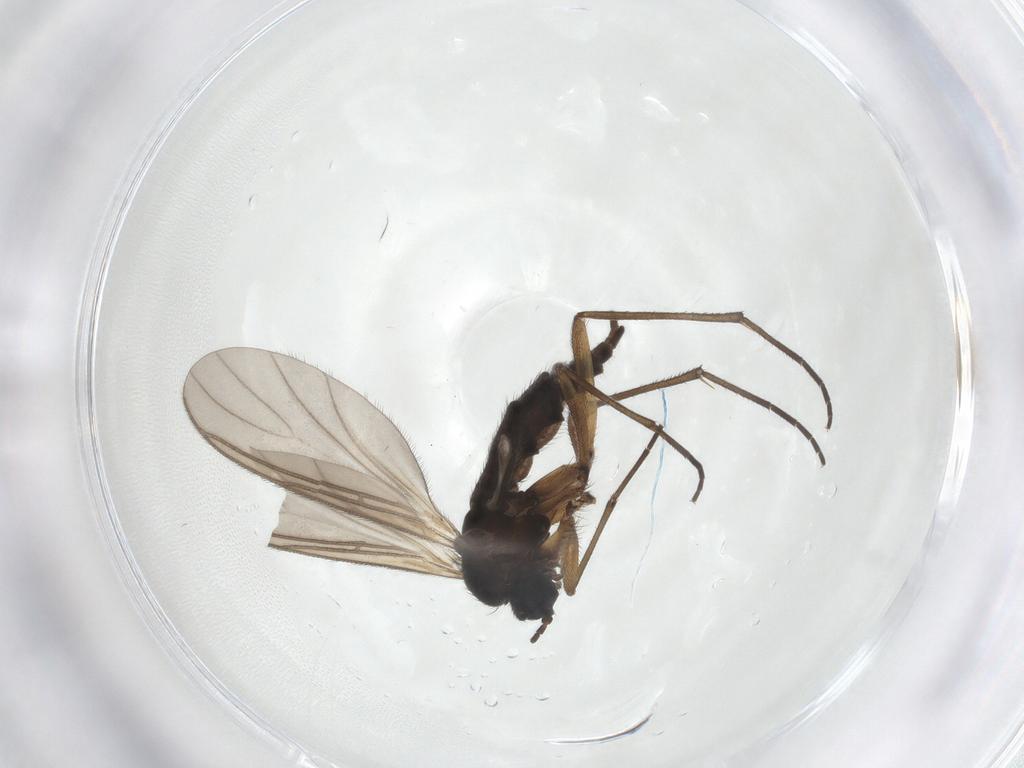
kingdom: Animalia
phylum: Arthropoda
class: Insecta
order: Diptera
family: Sciaridae
